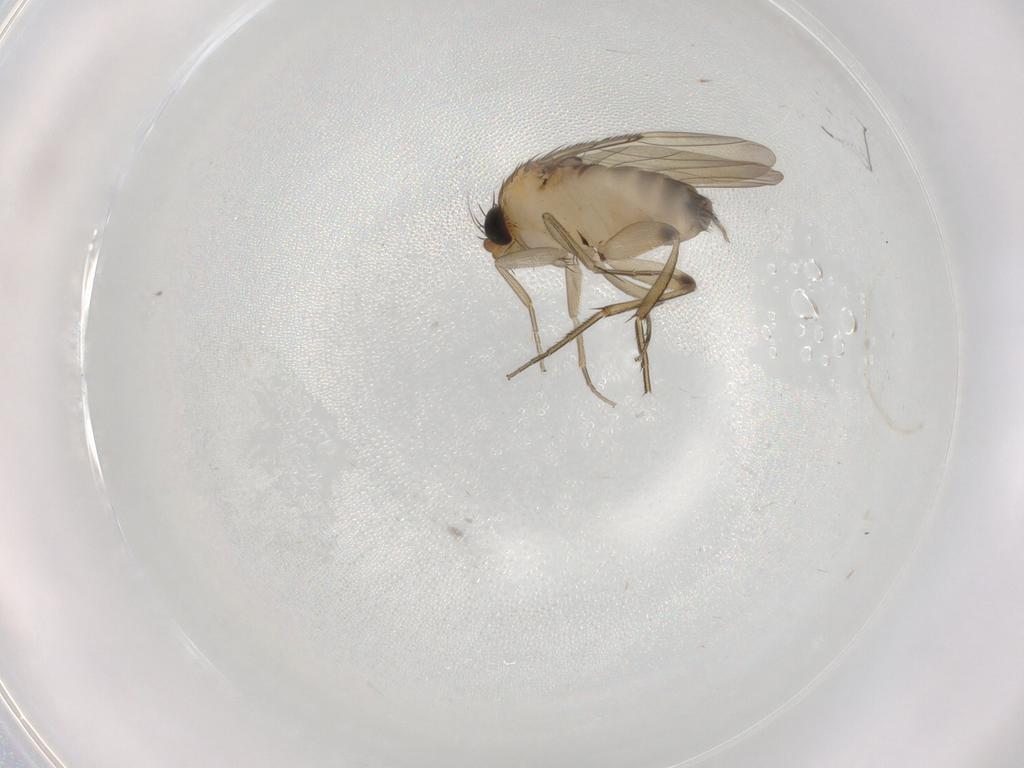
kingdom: Animalia
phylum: Arthropoda
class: Insecta
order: Diptera
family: Phoridae
